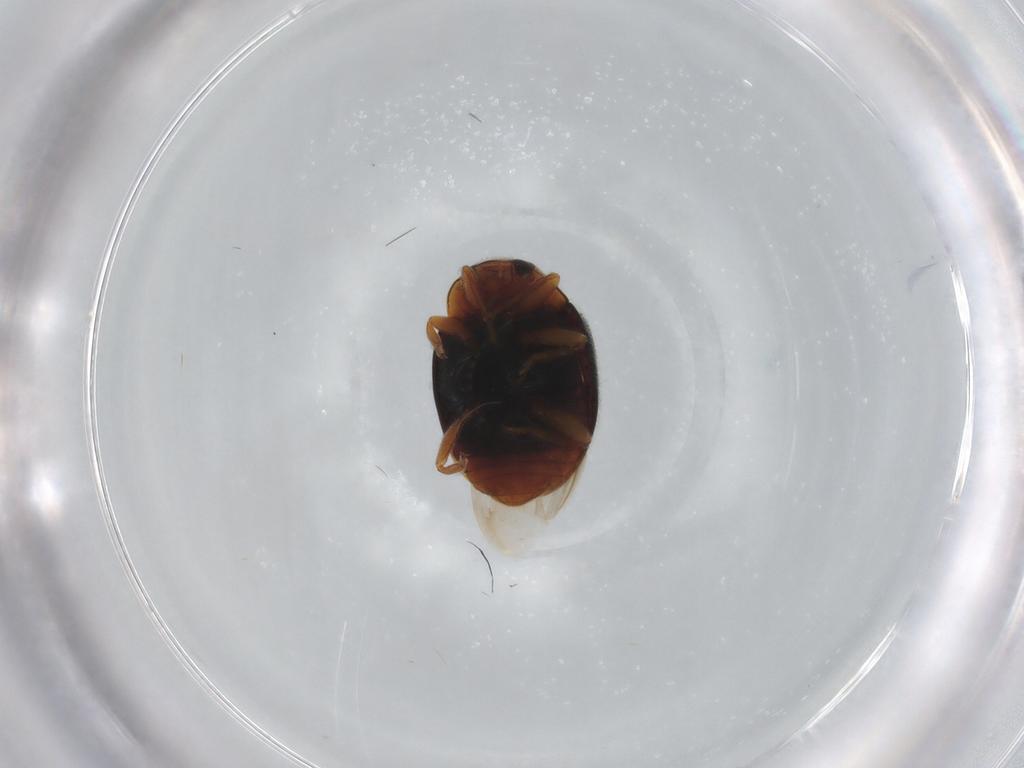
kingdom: Animalia
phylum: Arthropoda
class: Insecta
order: Coleoptera
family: Coccinellidae
